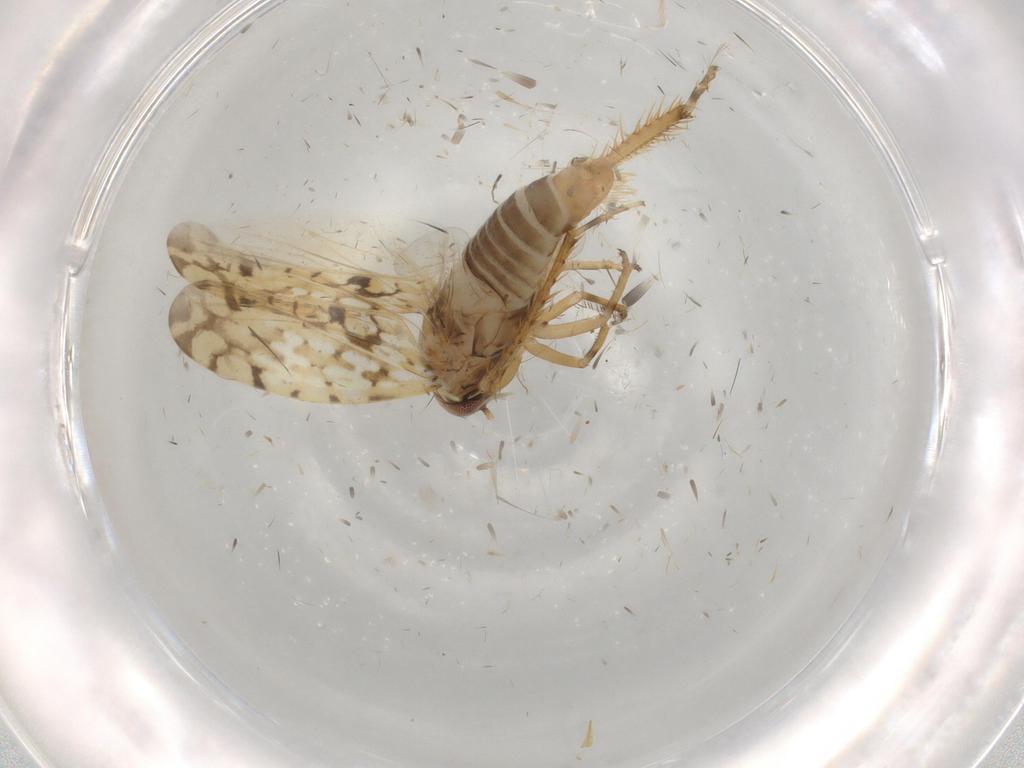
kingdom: Animalia
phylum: Arthropoda
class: Insecta
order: Hemiptera
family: Cicadellidae
